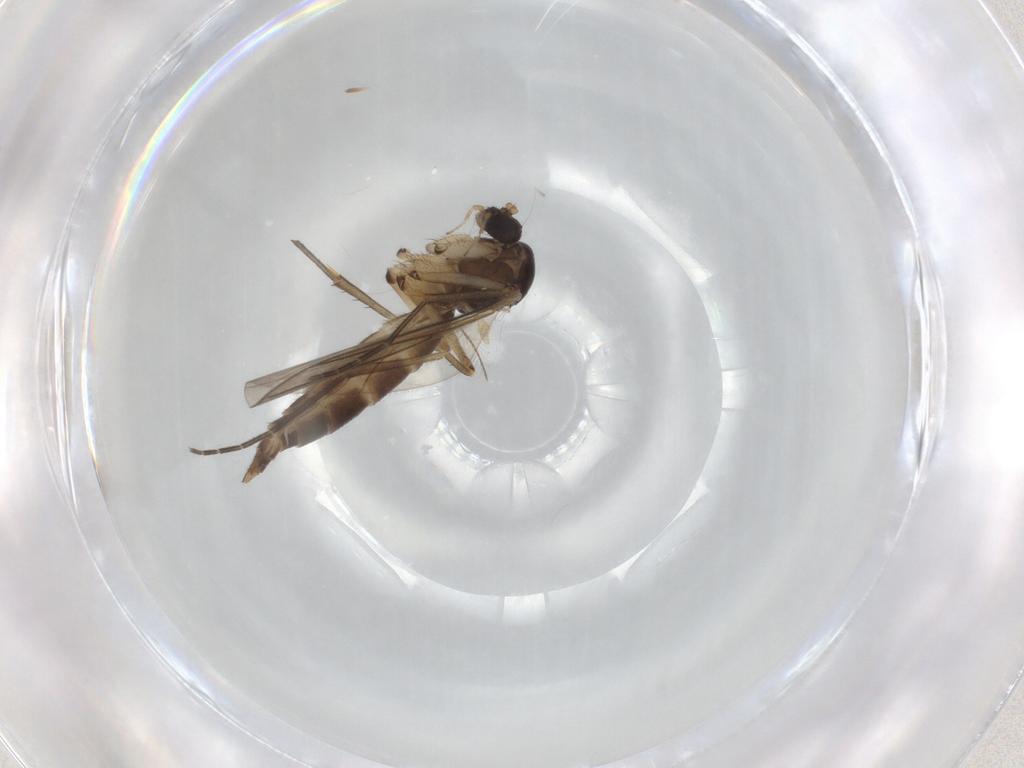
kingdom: Animalia
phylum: Arthropoda
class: Insecta
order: Diptera
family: Mycetophilidae
